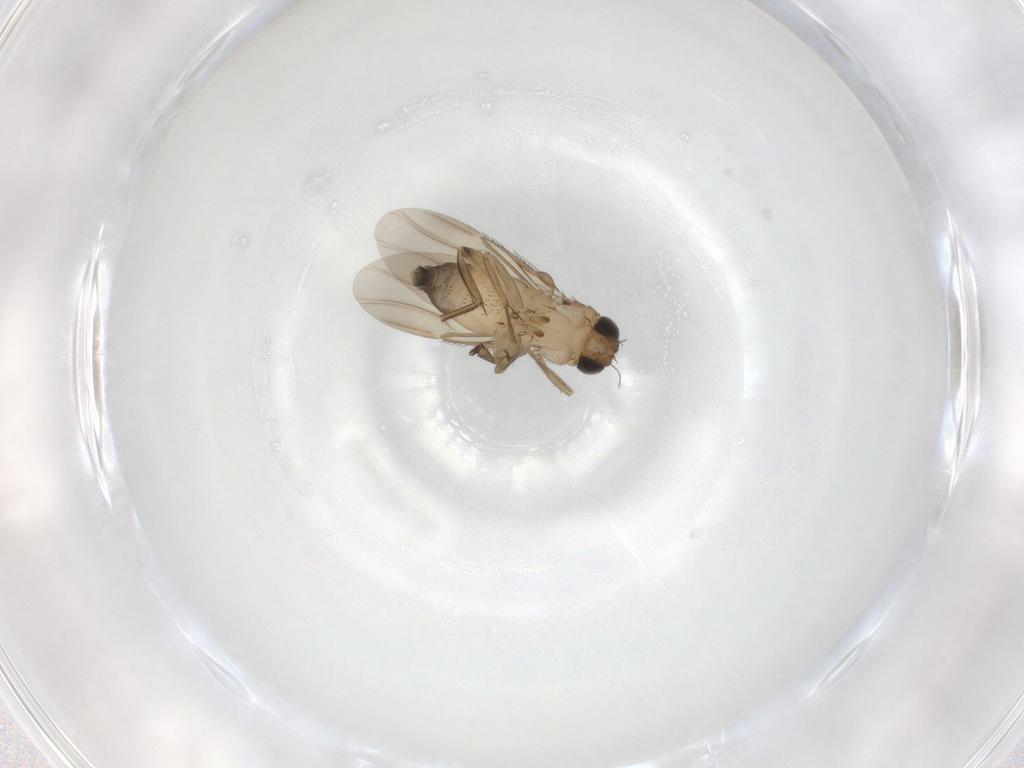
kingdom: Animalia
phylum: Arthropoda
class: Insecta
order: Diptera
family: Phoridae
